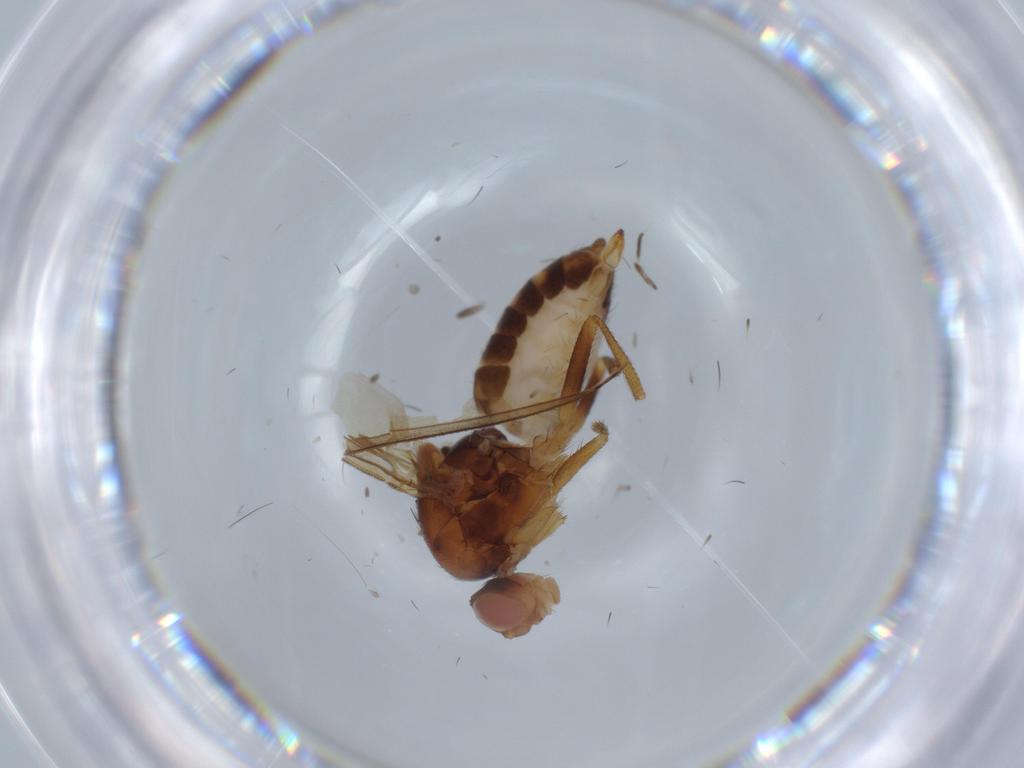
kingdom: Animalia
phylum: Arthropoda
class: Insecta
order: Diptera
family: Drosophilidae
